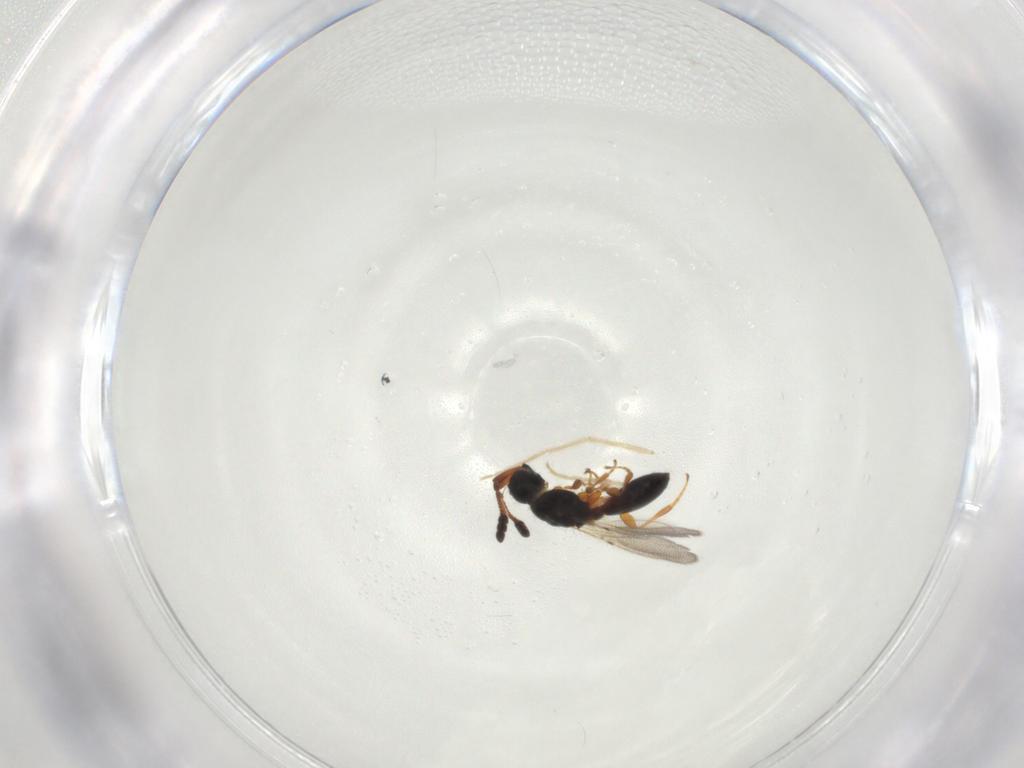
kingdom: Animalia
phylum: Arthropoda
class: Insecta
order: Hymenoptera
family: Diapriidae
